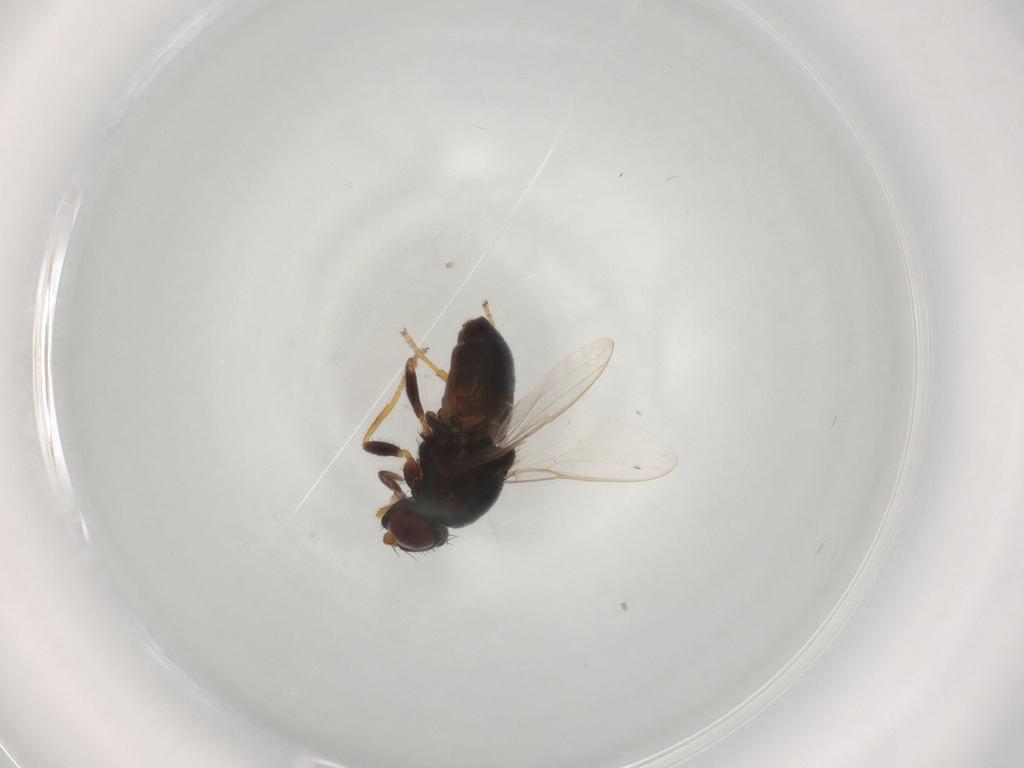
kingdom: Animalia
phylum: Arthropoda
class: Insecta
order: Diptera
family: Chloropidae
